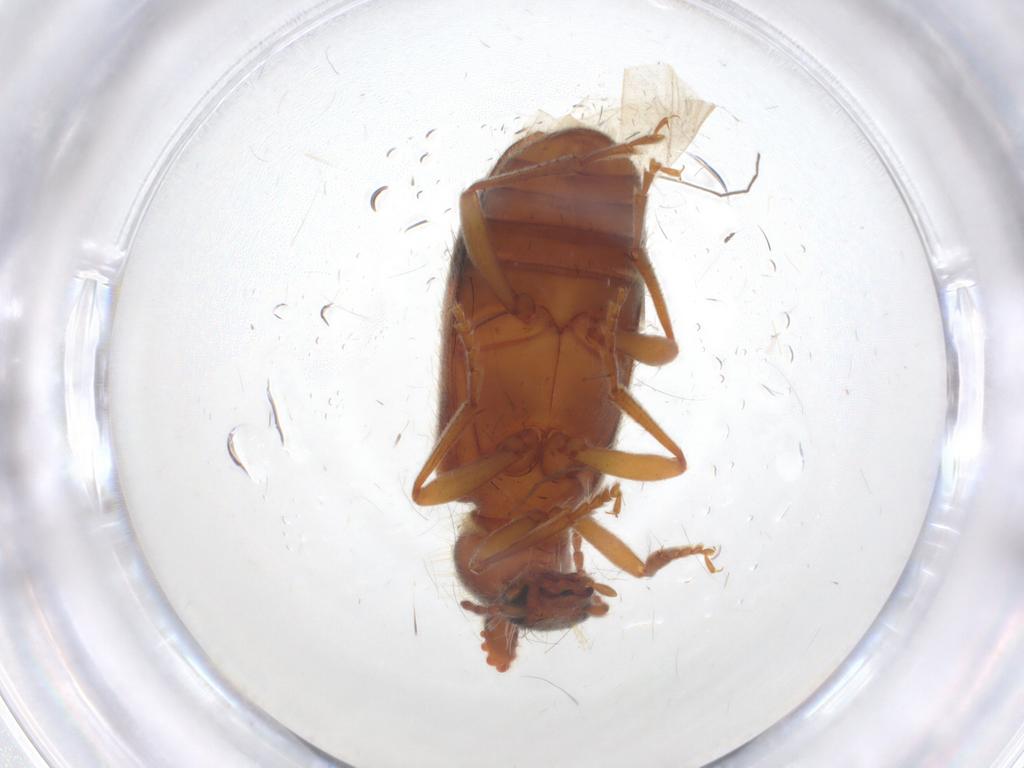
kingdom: Animalia
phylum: Arthropoda
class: Insecta
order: Coleoptera
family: Anthicidae
